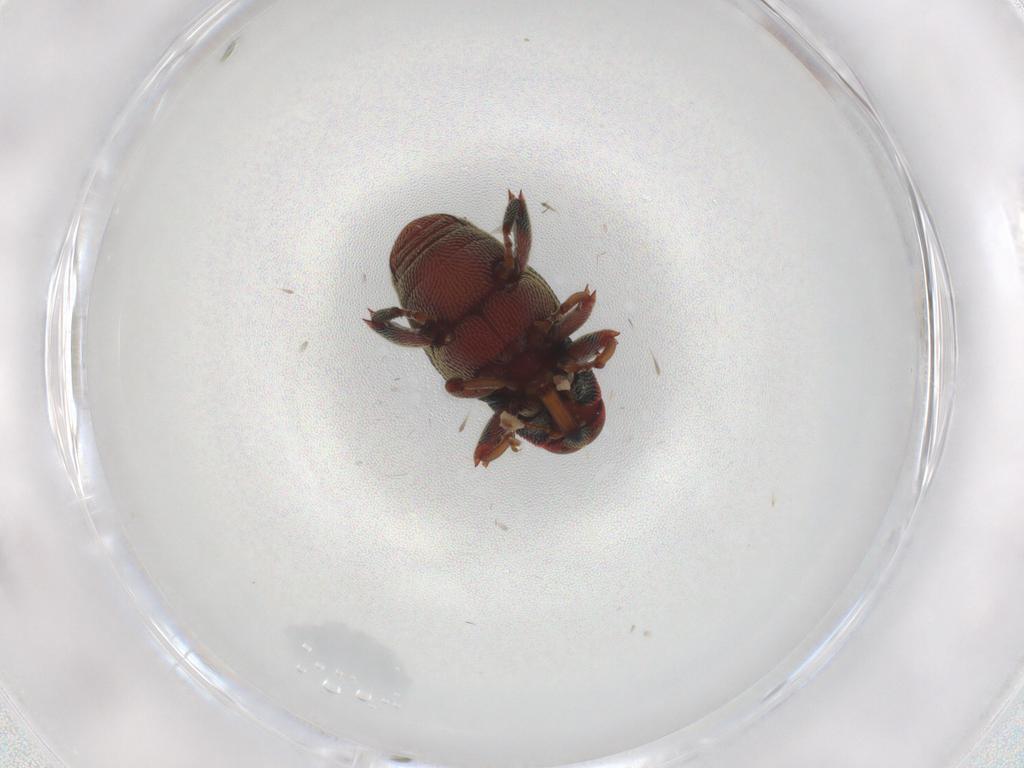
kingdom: Animalia
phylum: Arthropoda
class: Insecta
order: Coleoptera
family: Curculionidae
